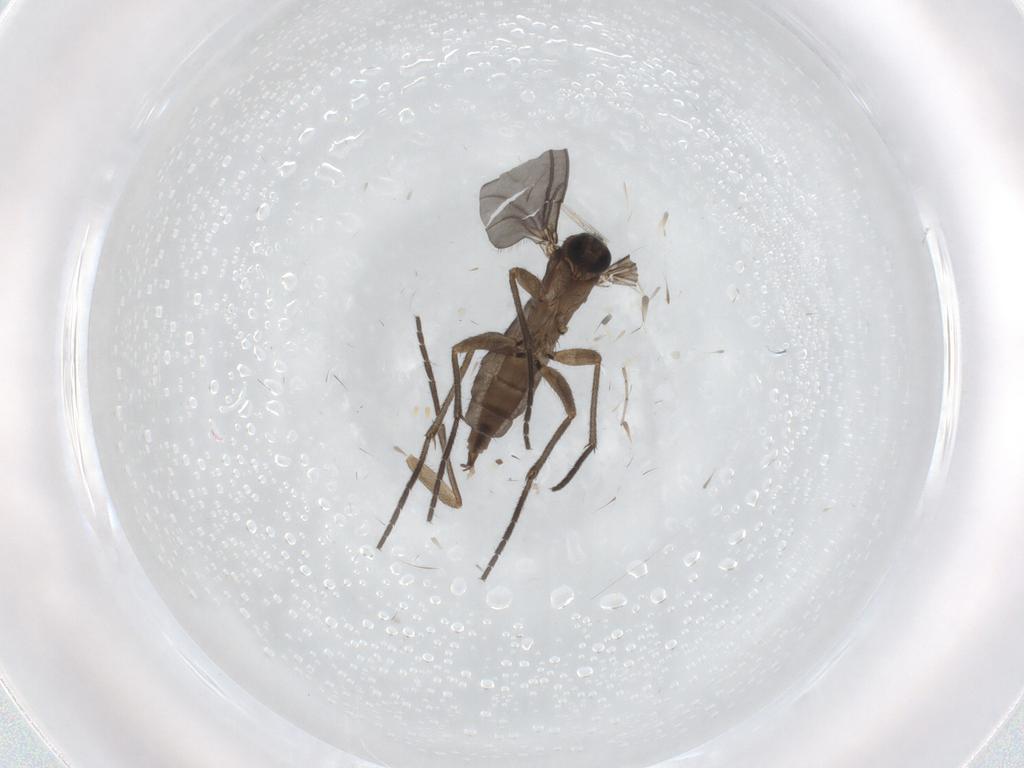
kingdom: Animalia
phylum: Arthropoda
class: Insecta
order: Diptera
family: Sciaridae
